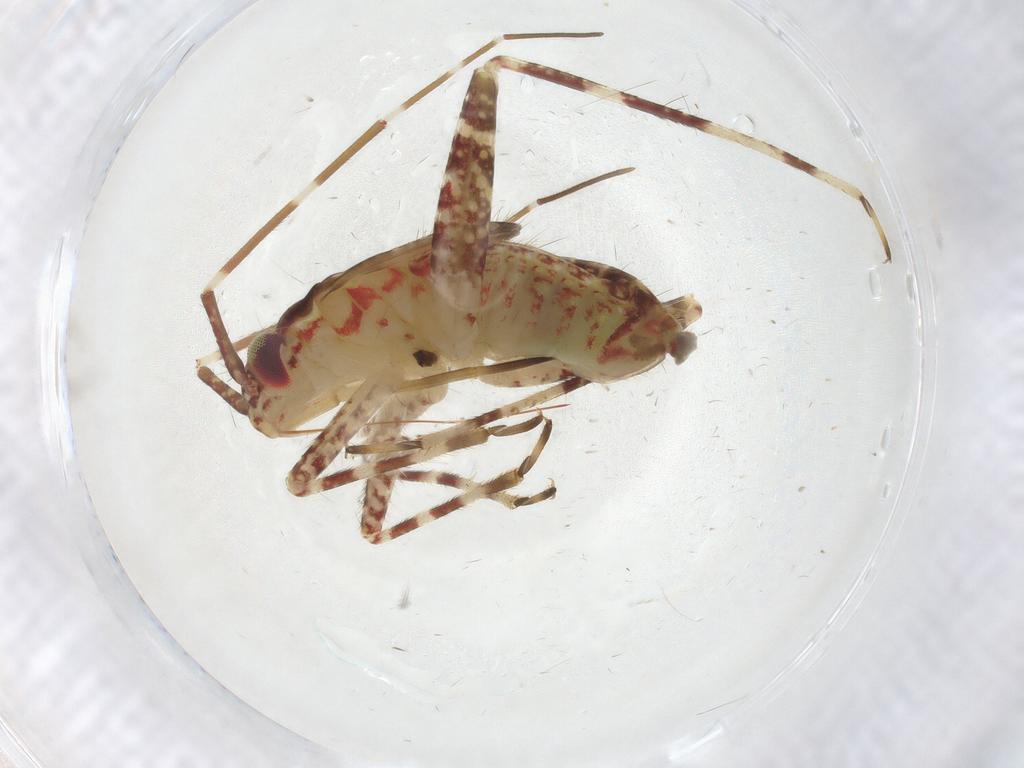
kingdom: Animalia
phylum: Arthropoda
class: Insecta
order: Hemiptera
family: Miridae
